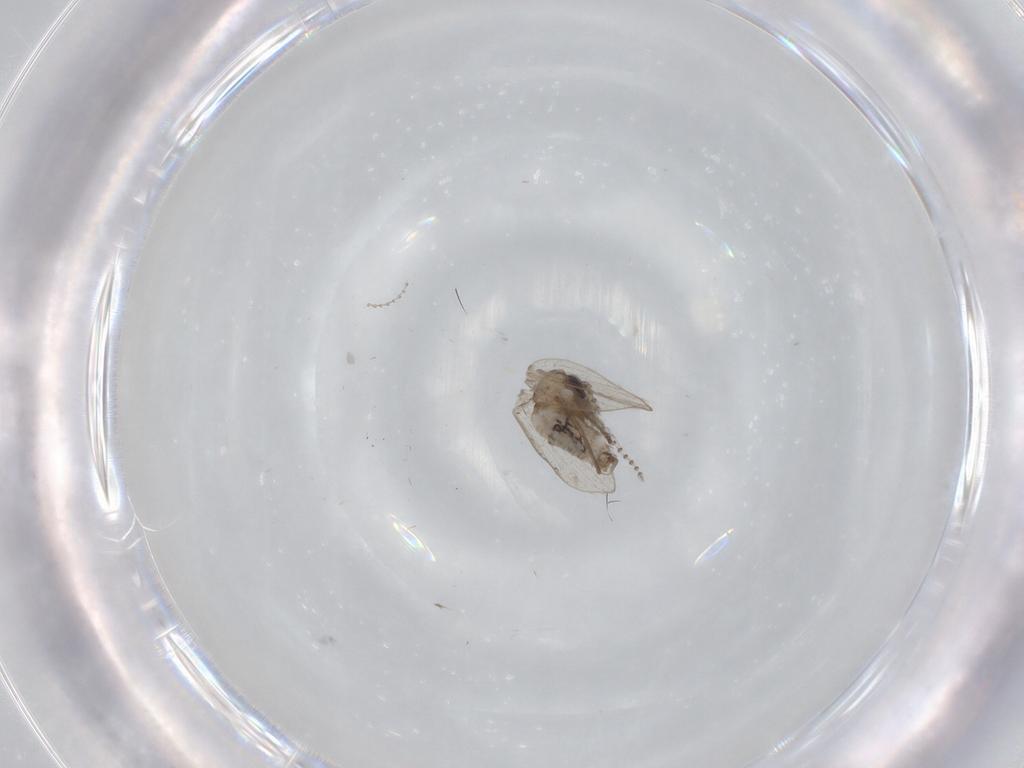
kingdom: Animalia
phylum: Arthropoda
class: Insecta
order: Diptera
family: Psychodidae
